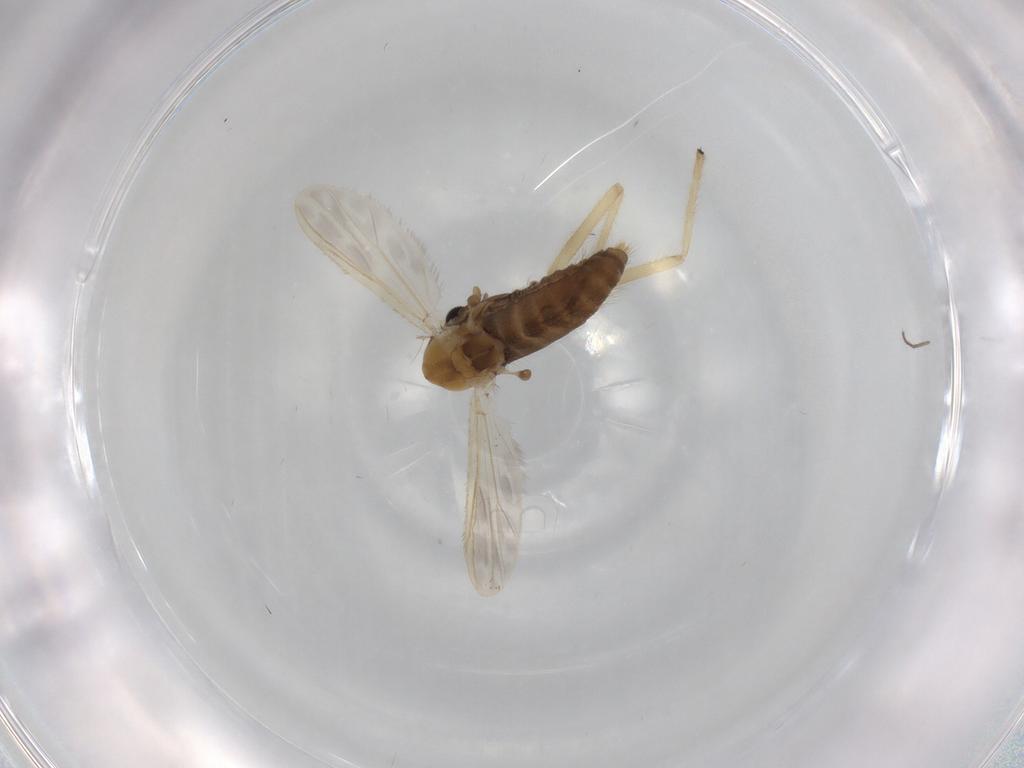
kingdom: Animalia
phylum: Arthropoda
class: Insecta
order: Diptera
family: Chironomidae
